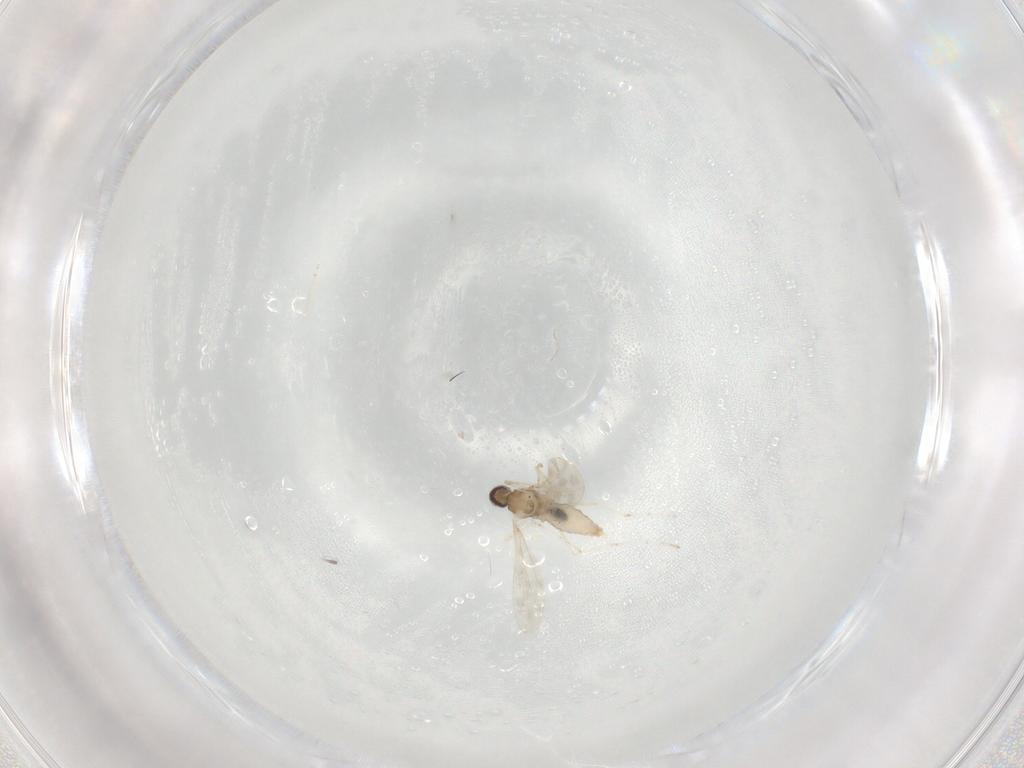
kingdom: Animalia
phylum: Arthropoda
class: Insecta
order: Diptera
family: Cecidomyiidae
